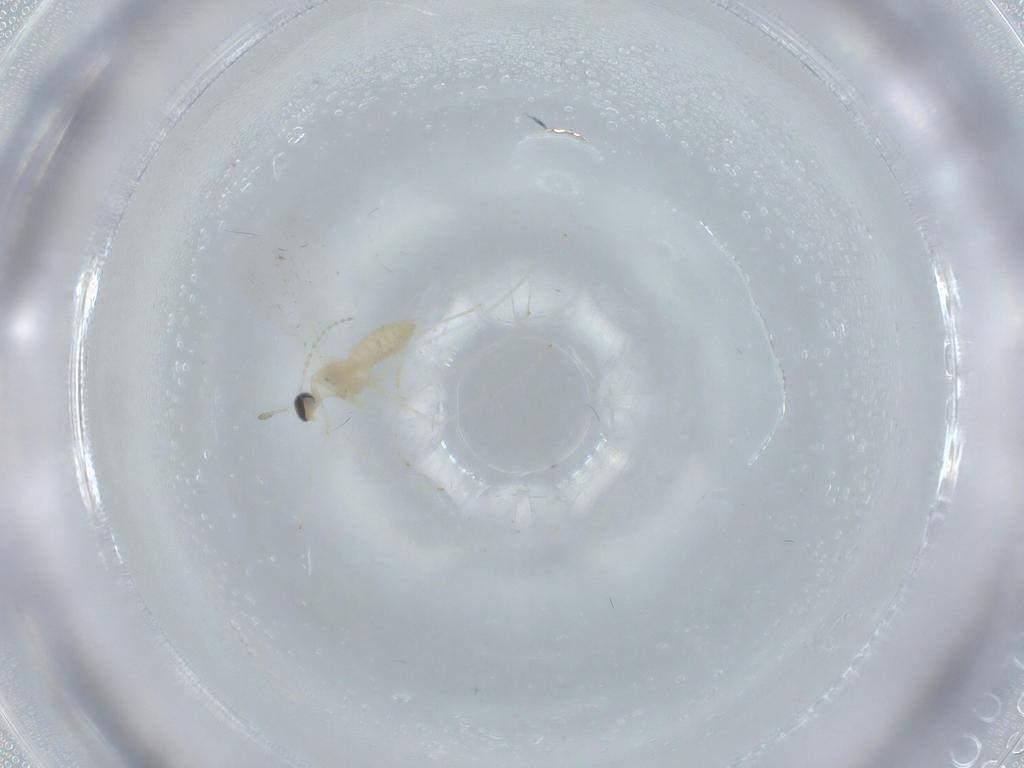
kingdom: Animalia
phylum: Arthropoda
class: Insecta
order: Diptera
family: Cecidomyiidae
